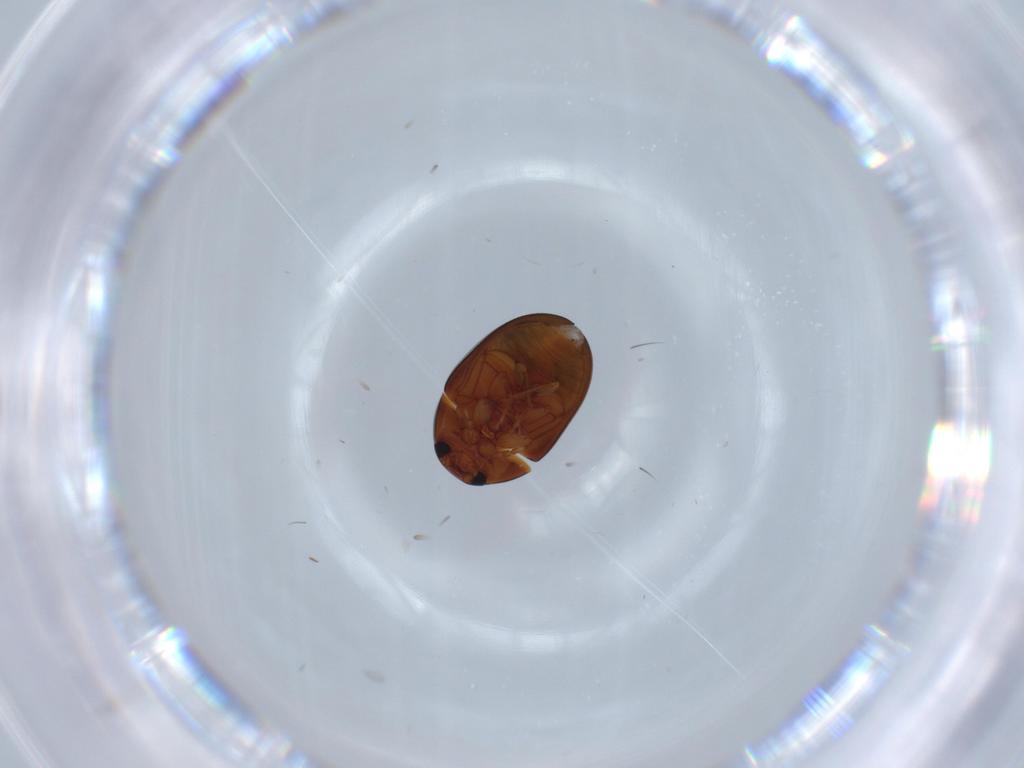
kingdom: Animalia
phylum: Arthropoda
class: Insecta
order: Coleoptera
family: Phalacridae
